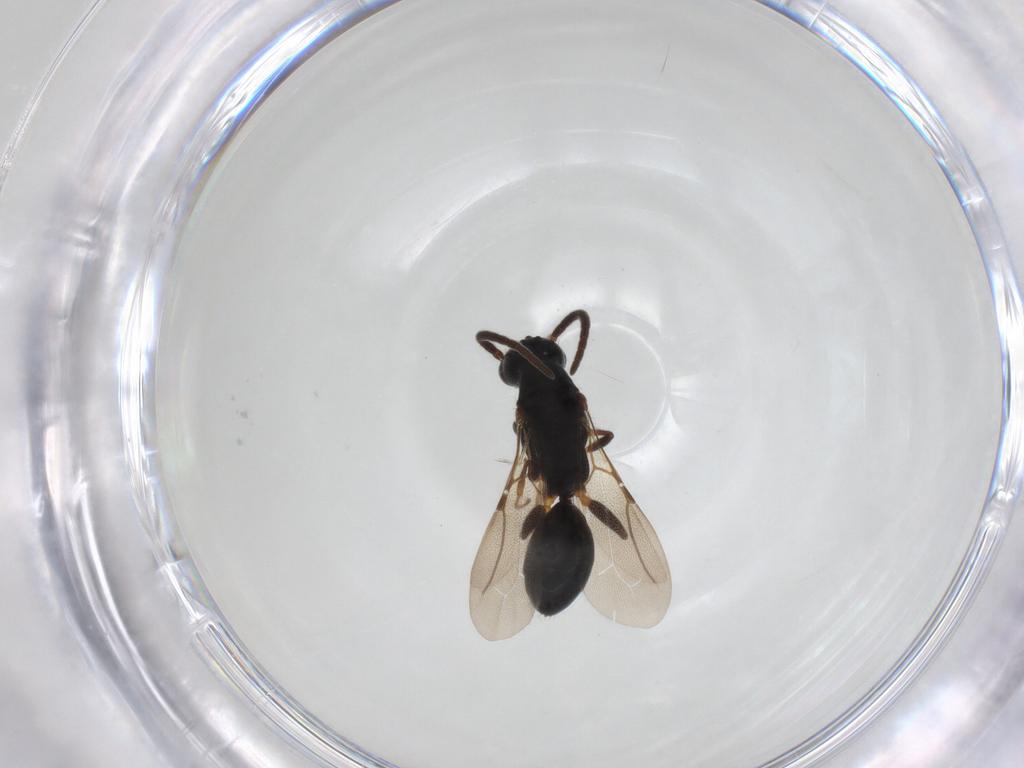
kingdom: Animalia
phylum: Arthropoda
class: Insecta
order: Hymenoptera
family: Bethylidae
